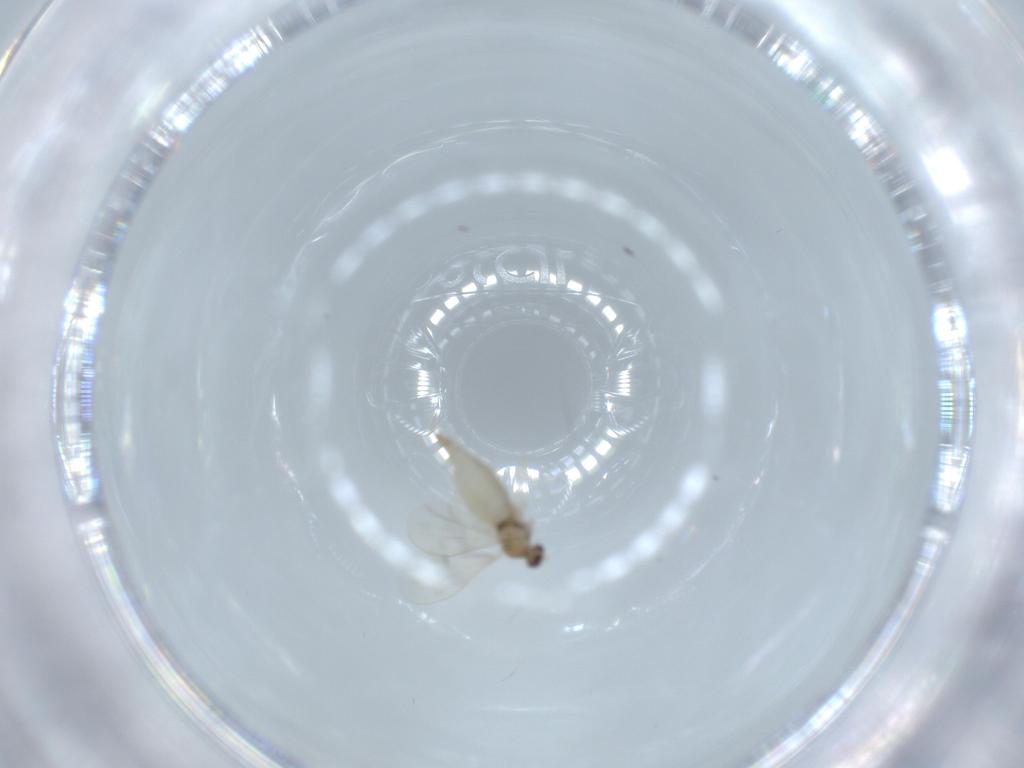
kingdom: Animalia
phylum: Arthropoda
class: Insecta
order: Diptera
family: Cecidomyiidae
